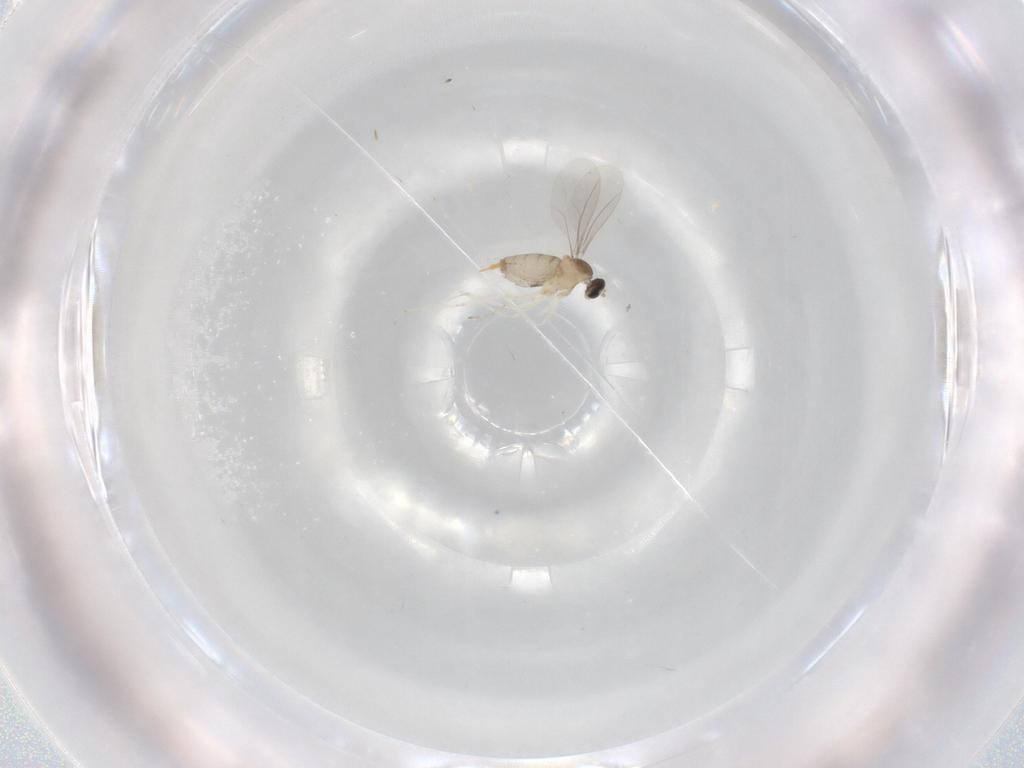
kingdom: Animalia
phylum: Arthropoda
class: Insecta
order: Diptera
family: Cecidomyiidae
